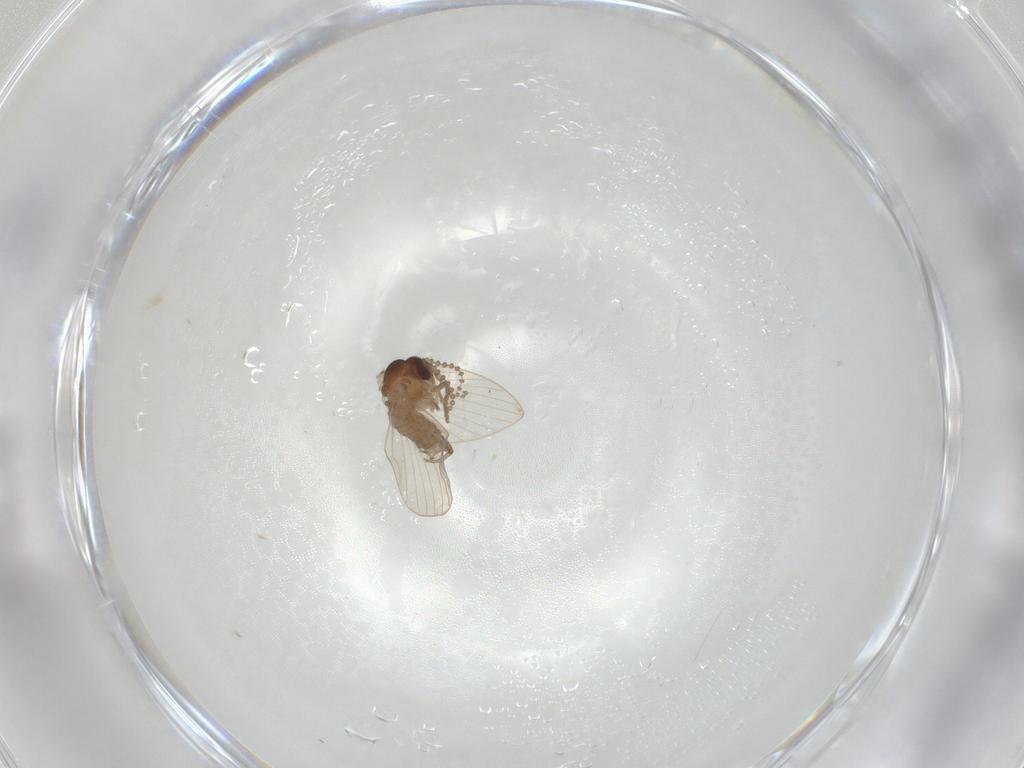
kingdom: Animalia
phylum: Arthropoda
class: Insecta
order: Diptera
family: Psychodidae
